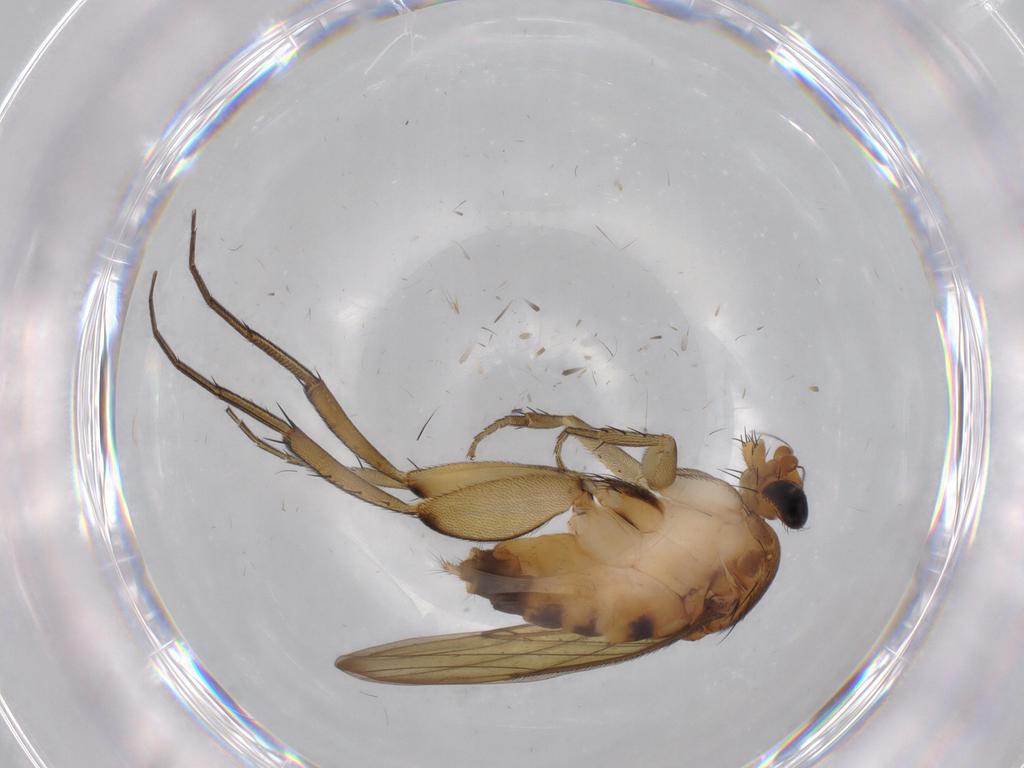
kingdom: Animalia
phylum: Arthropoda
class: Insecta
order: Diptera
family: Phoridae
